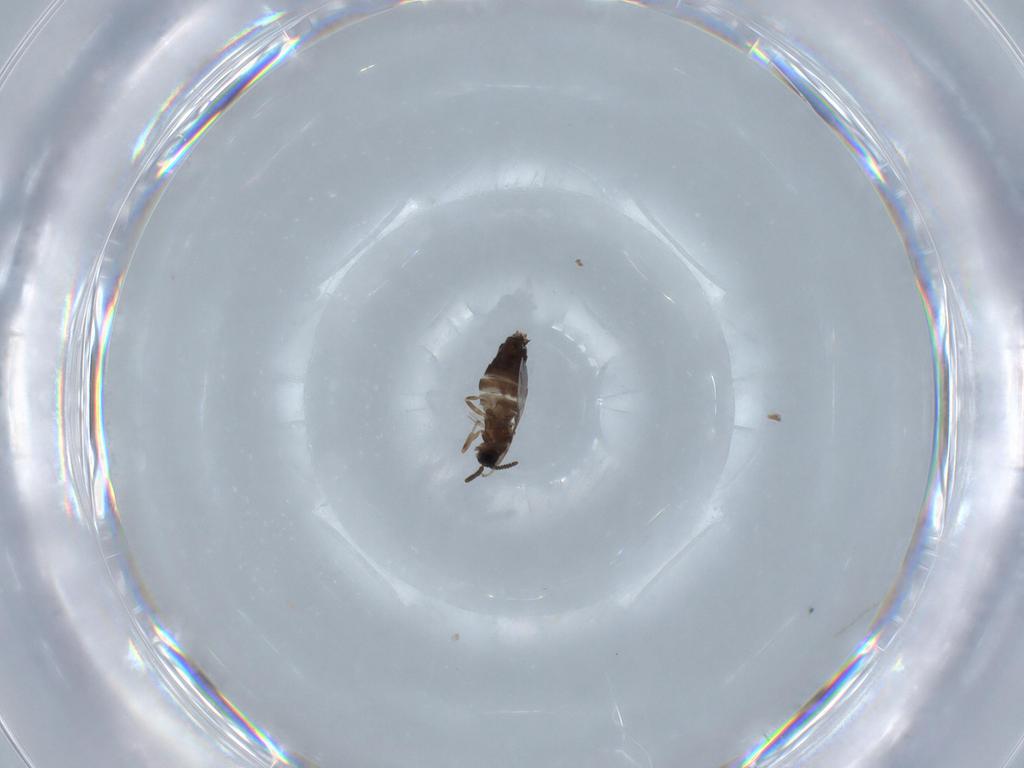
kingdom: Animalia
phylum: Arthropoda
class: Insecta
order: Diptera
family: Scatopsidae
